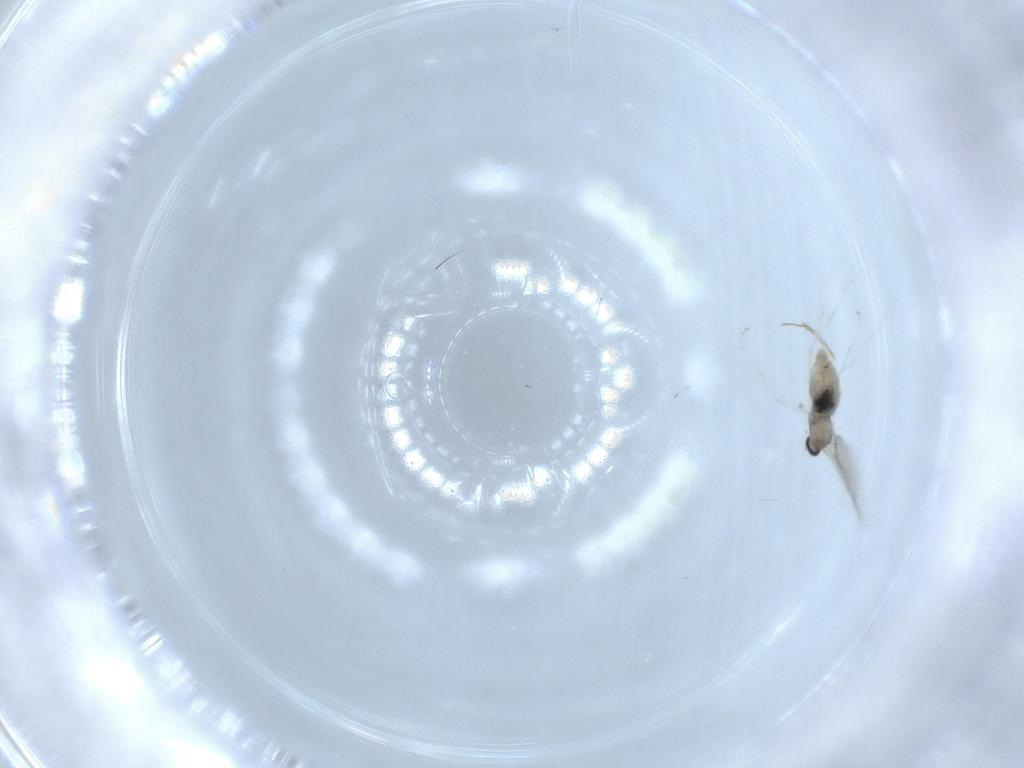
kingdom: Animalia
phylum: Arthropoda
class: Insecta
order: Diptera
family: Cecidomyiidae
